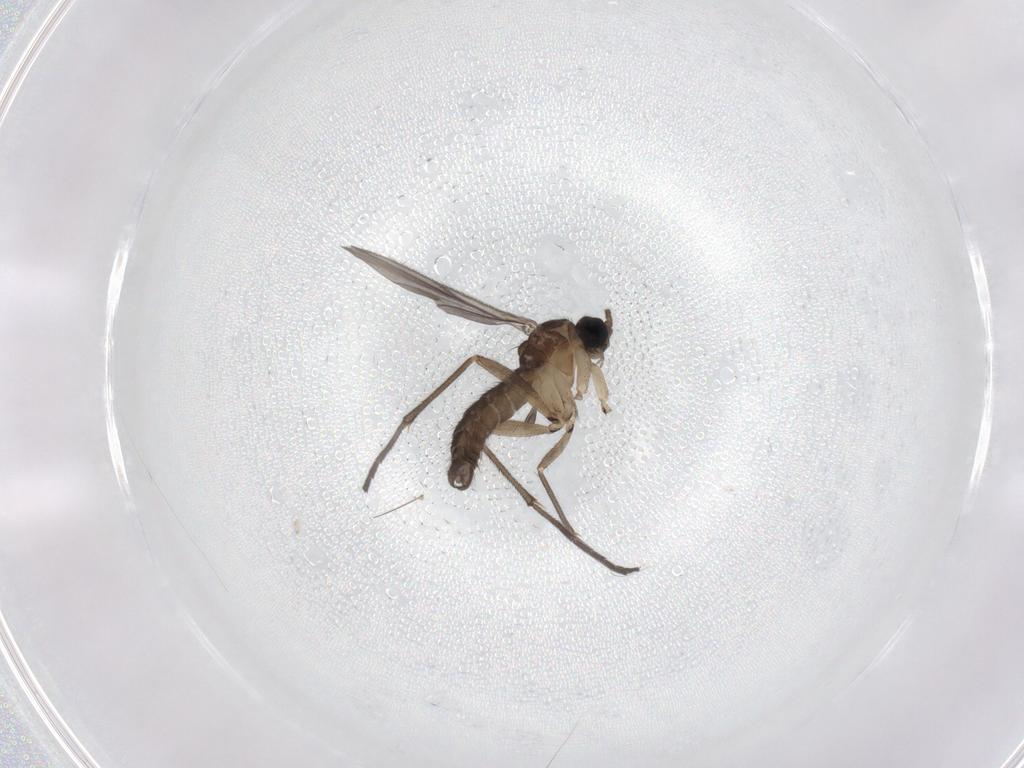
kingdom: Animalia
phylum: Arthropoda
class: Insecta
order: Diptera
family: Sciaridae
